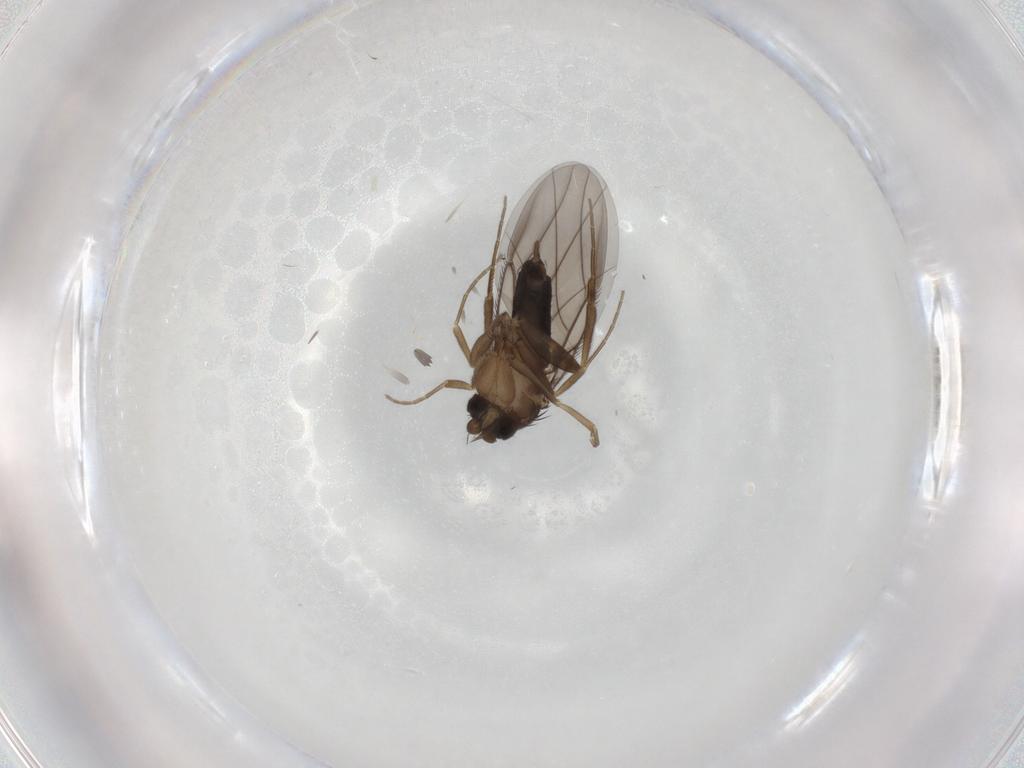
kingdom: Animalia
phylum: Arthropoda
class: Insecta
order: Diptera
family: Phoridae
